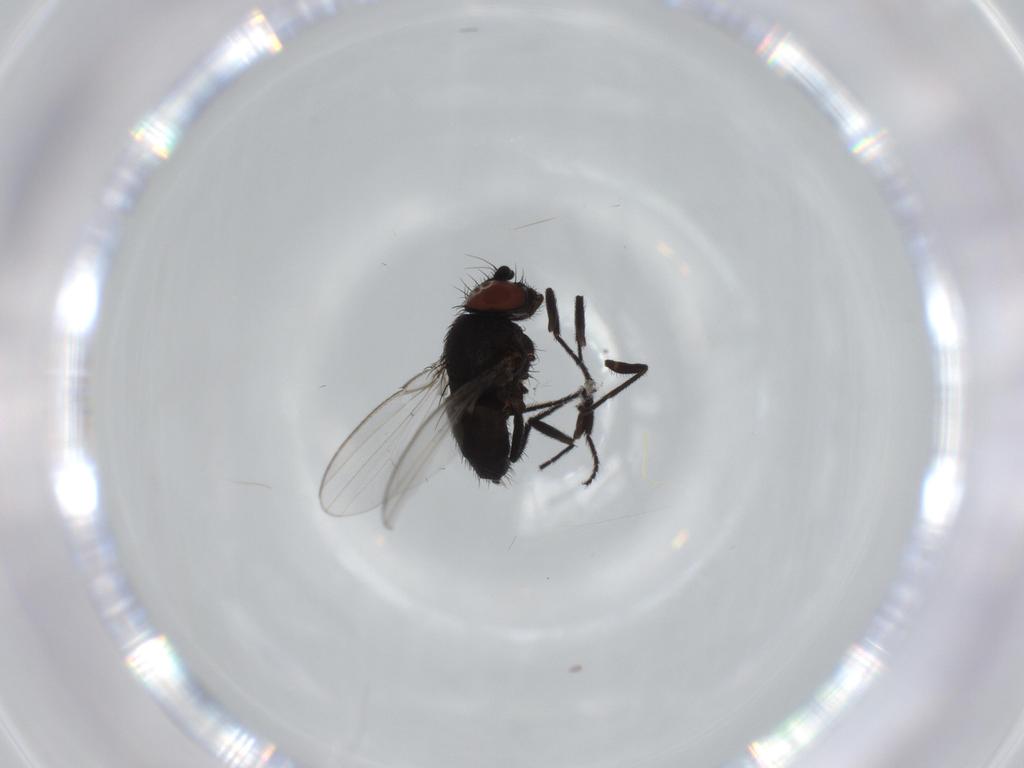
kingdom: Animalia
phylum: Arthropoda
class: Insecta
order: Diptera
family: Milichiidae
